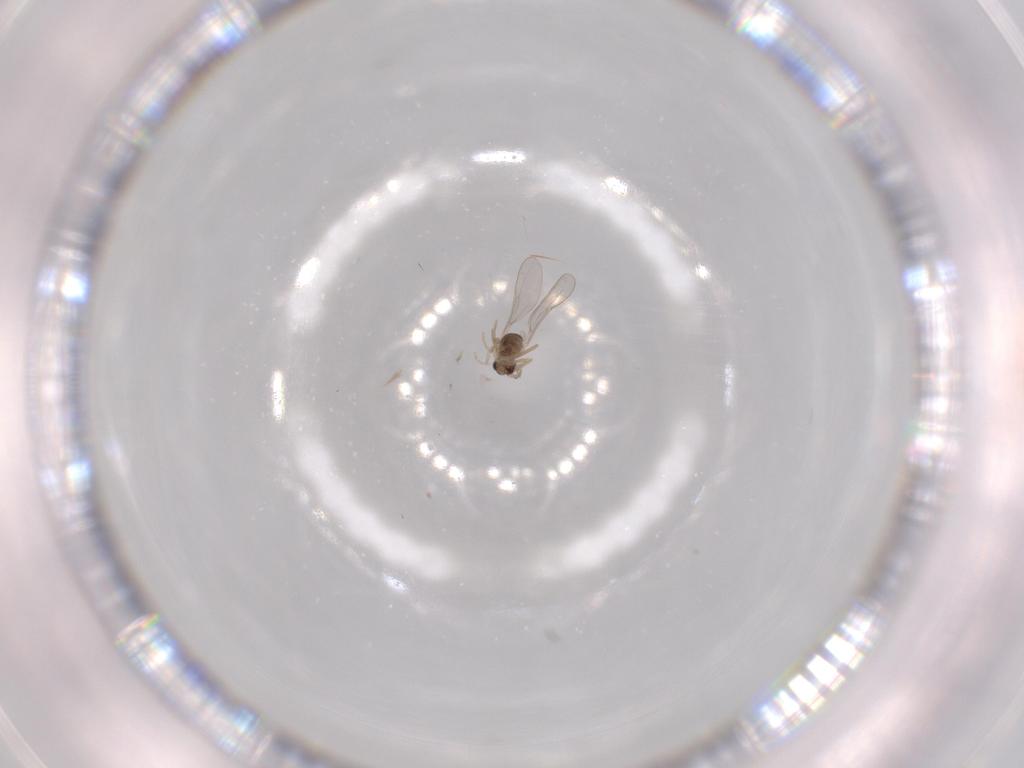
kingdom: Animalia
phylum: Arthropoda
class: Insecta
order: Diptera
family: Cecidomyiidae
